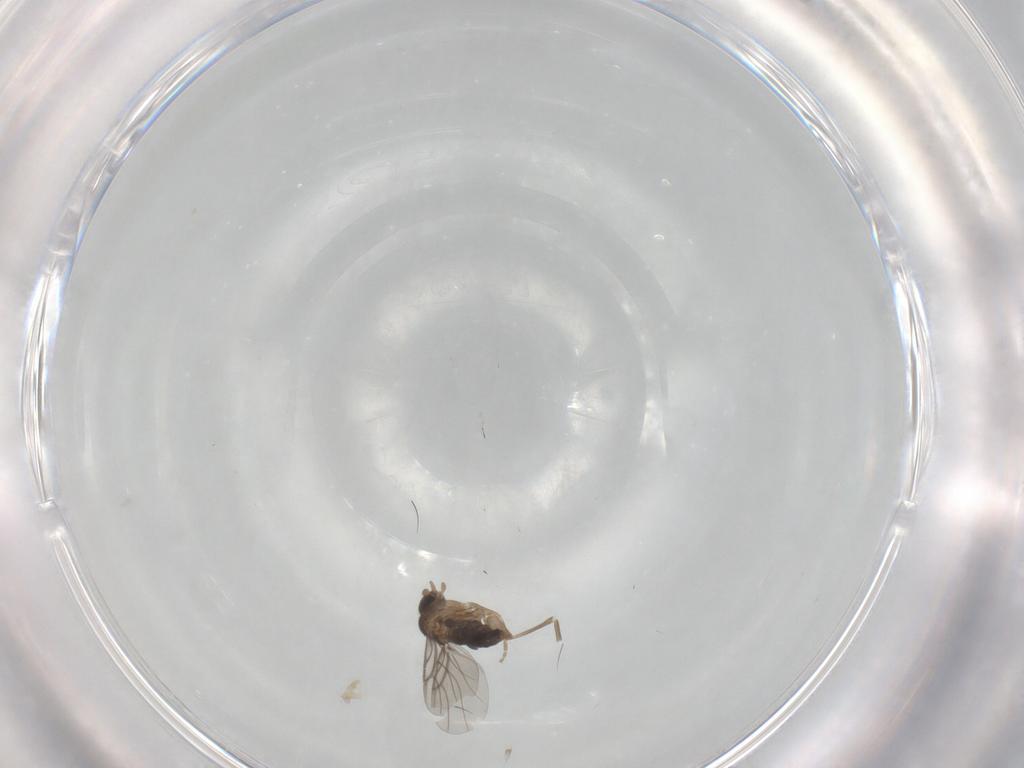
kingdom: Animalia
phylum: Arthropoda
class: Insecta
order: Diptera
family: Phoridae
